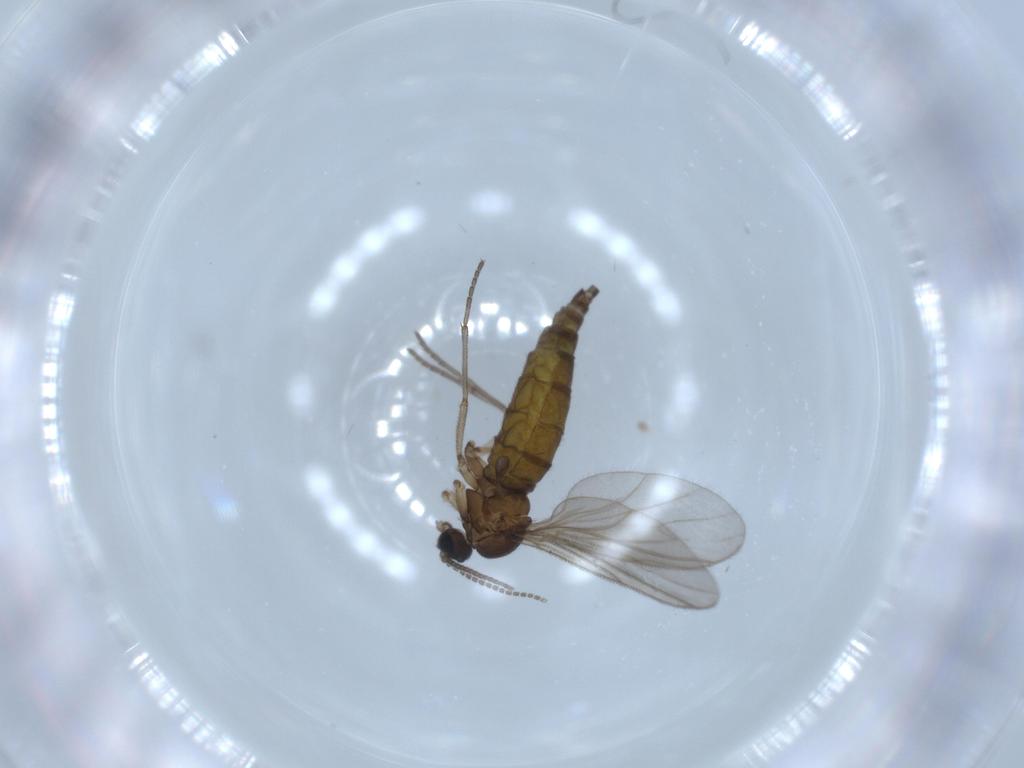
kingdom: Animalia
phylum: Arthropoda
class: Insecta
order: Diptera
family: Sciaridae
